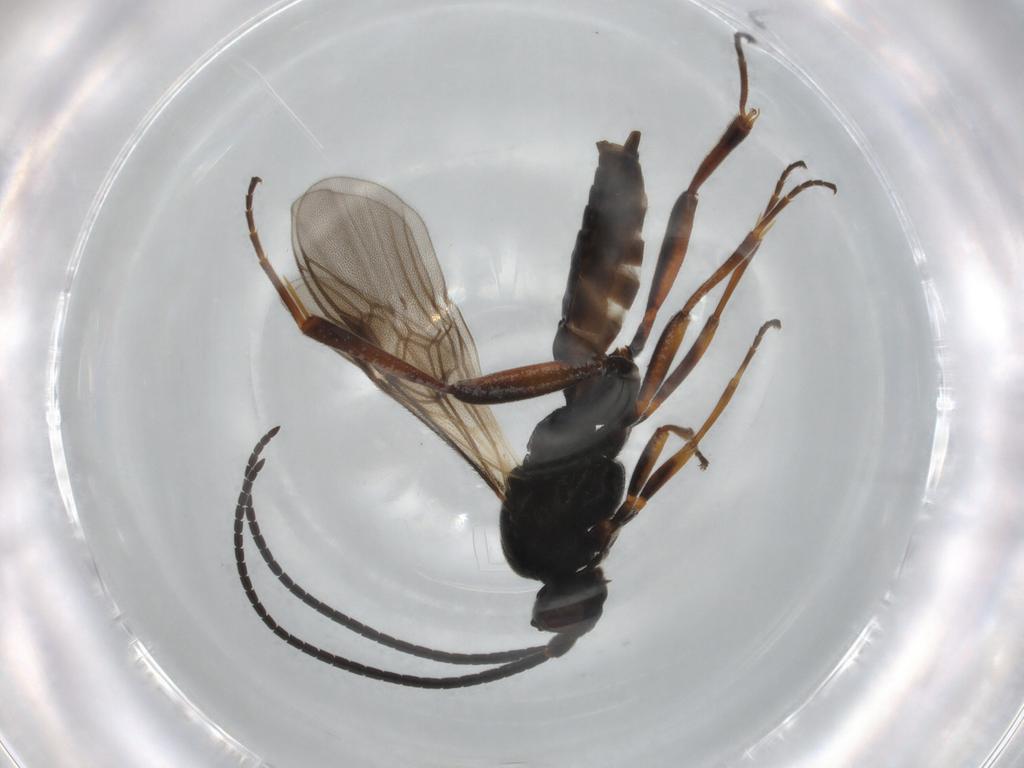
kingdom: Animalia
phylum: Arthropoda
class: Insecta
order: Hymenoptera
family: Braconidae
